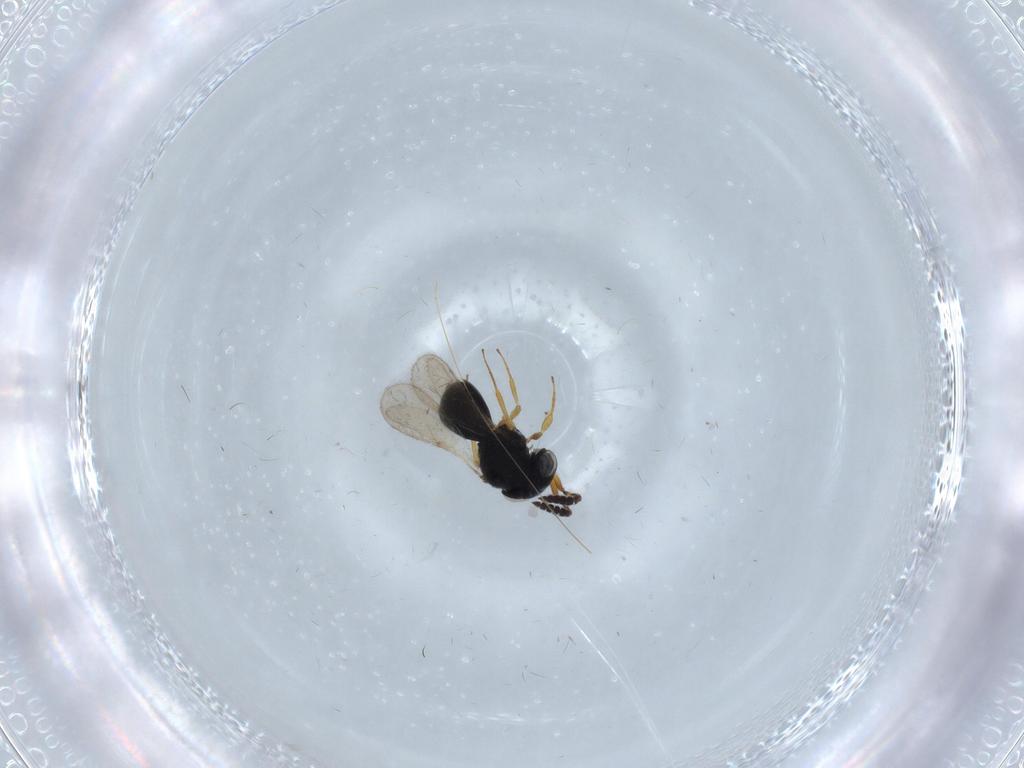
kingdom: Animalia
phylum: Arthropoda
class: Insecta
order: Hymenoptera
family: Scelionidae
